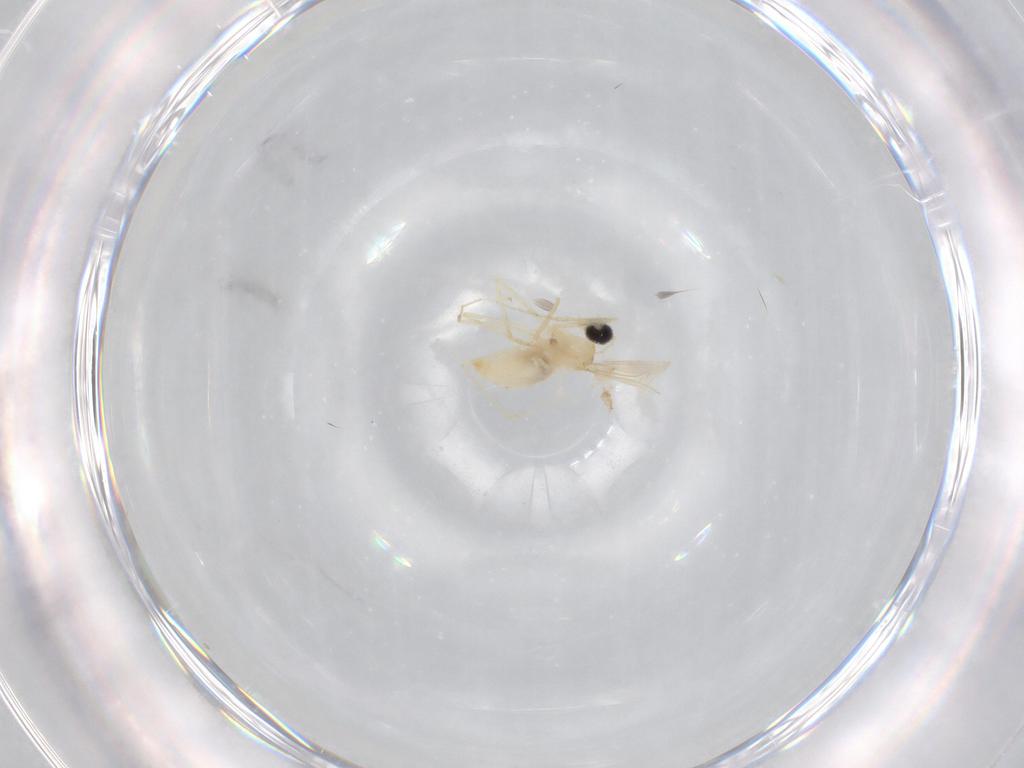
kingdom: Animalia
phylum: Arthropoda
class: Insecta
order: Diptera
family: Cecidomyiidae
